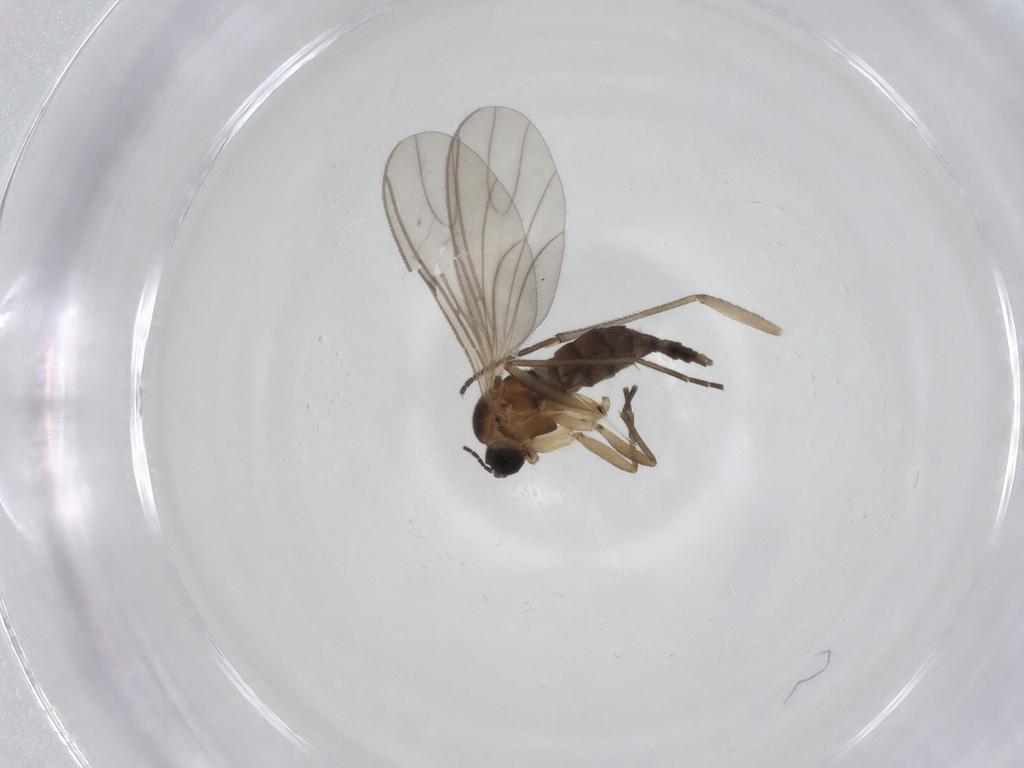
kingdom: Animalia
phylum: Arthropoda
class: Insecta
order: Diptera
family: Sciaridae
